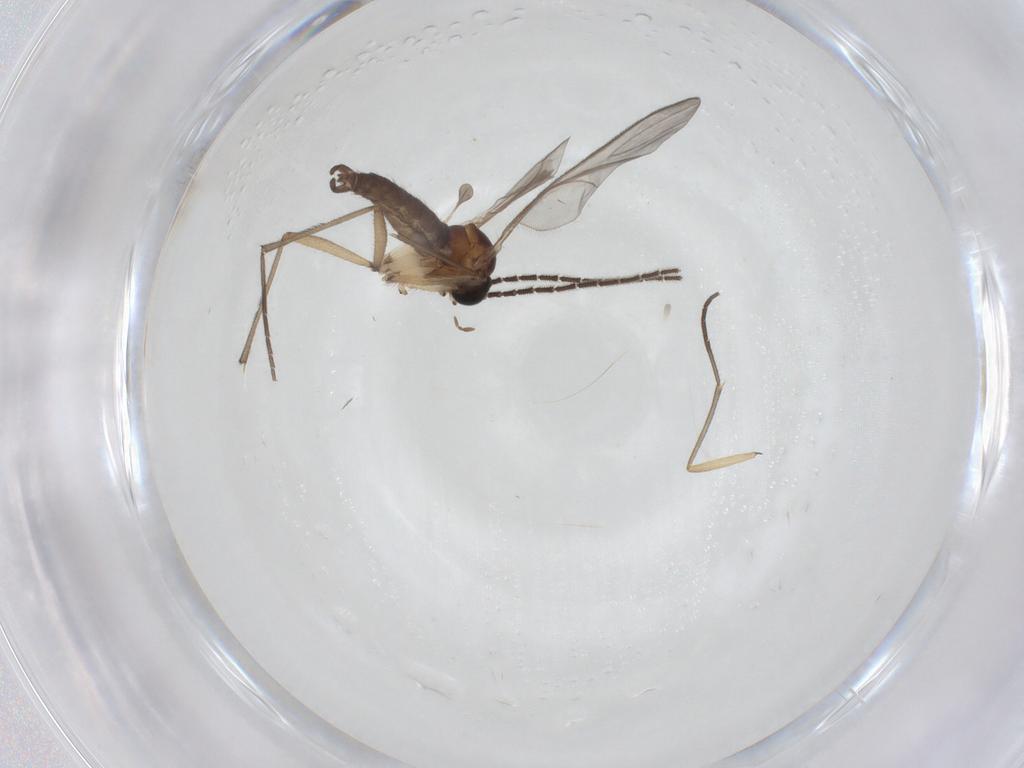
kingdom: Animalia
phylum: Arthropoda
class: Insecta
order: Diptera
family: Sciaridae
